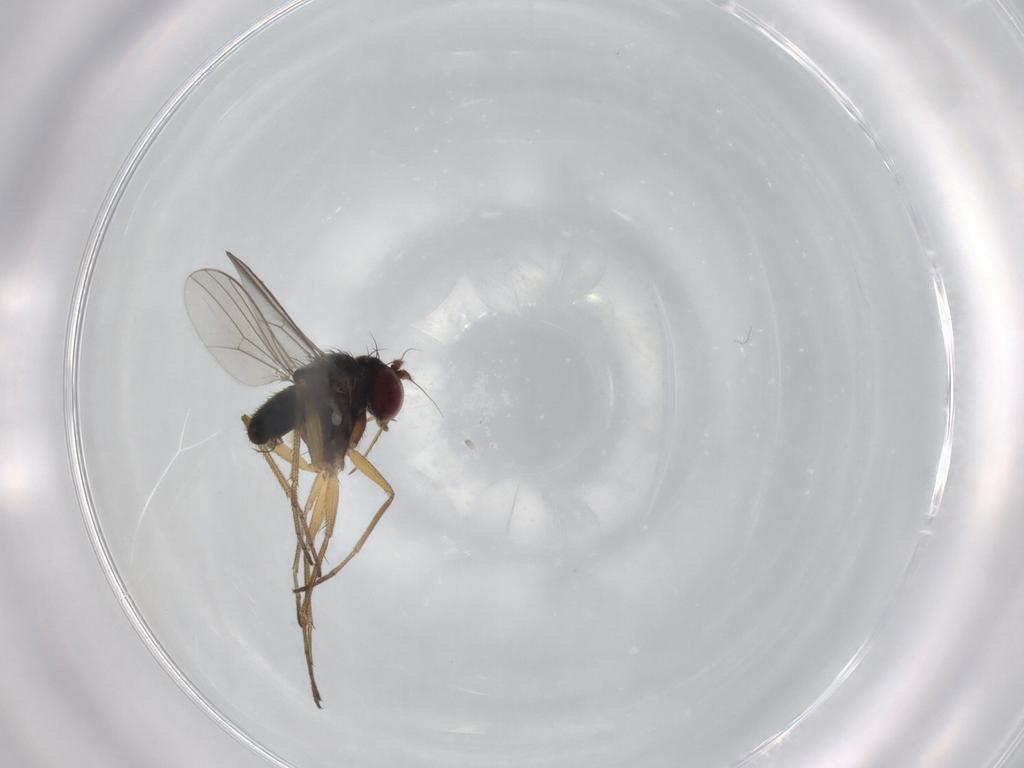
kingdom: Animalia
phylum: Arthropoda
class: Insecta
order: Diptera
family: Dolichopodidae
